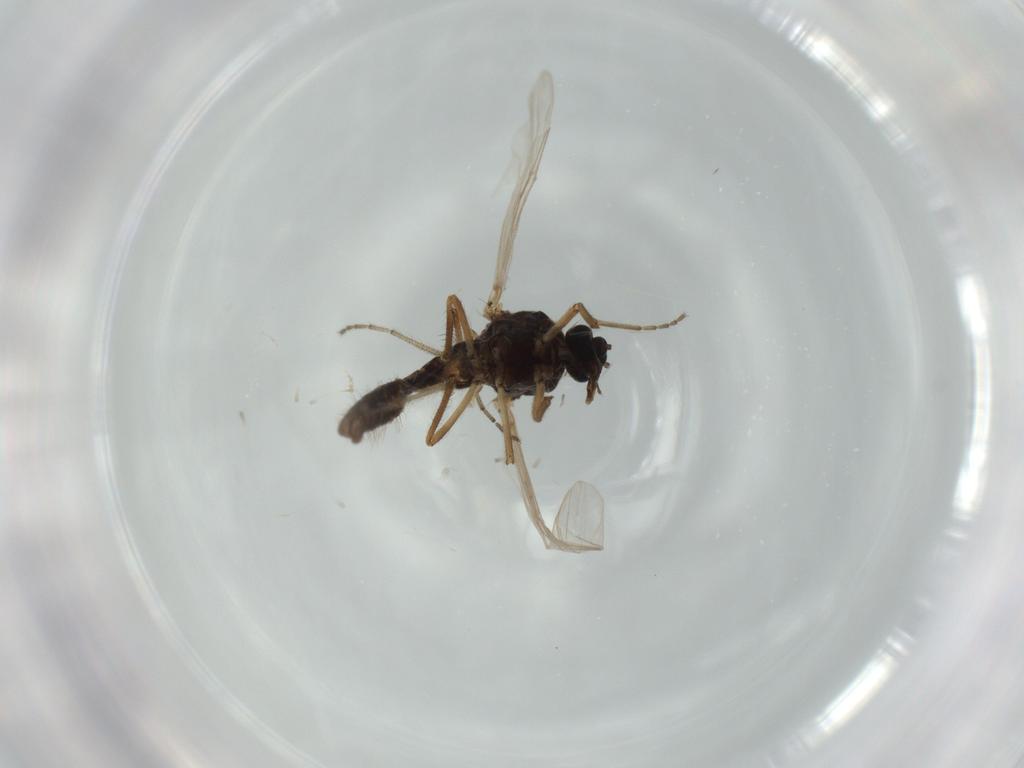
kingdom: Animalia
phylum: Arthropoda
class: Insecta
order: Diptera
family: Ceratopogonidae
